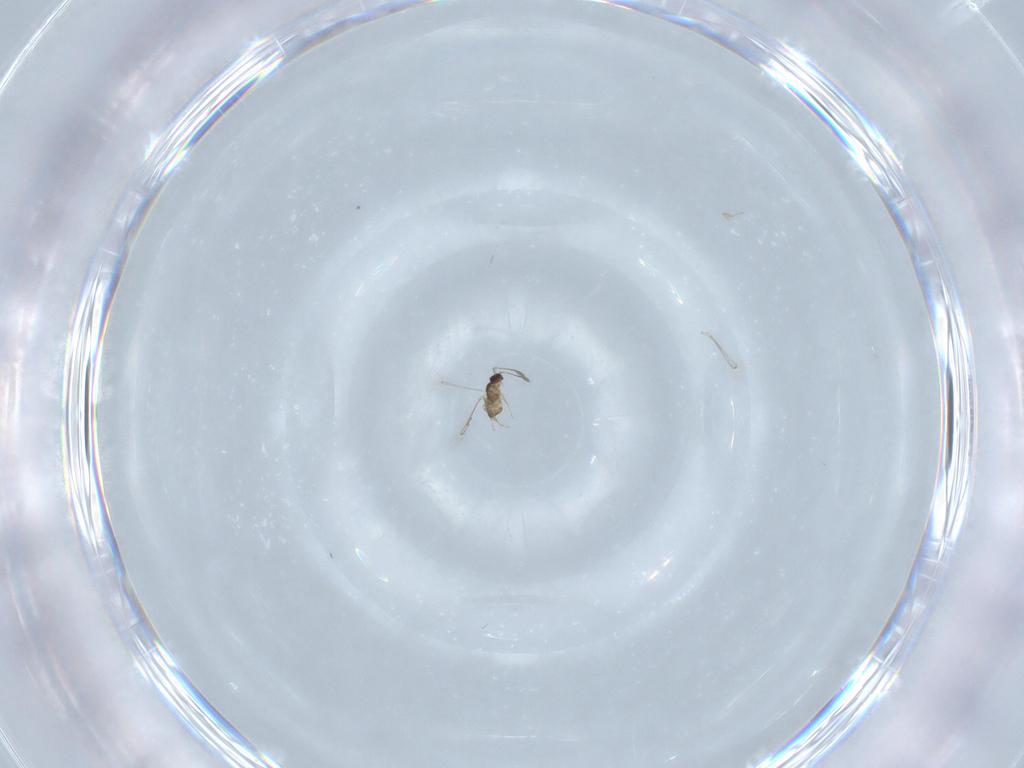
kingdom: Animalia
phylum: Arthropoda
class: Insecta
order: Hymenoptera
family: Mymaridae
